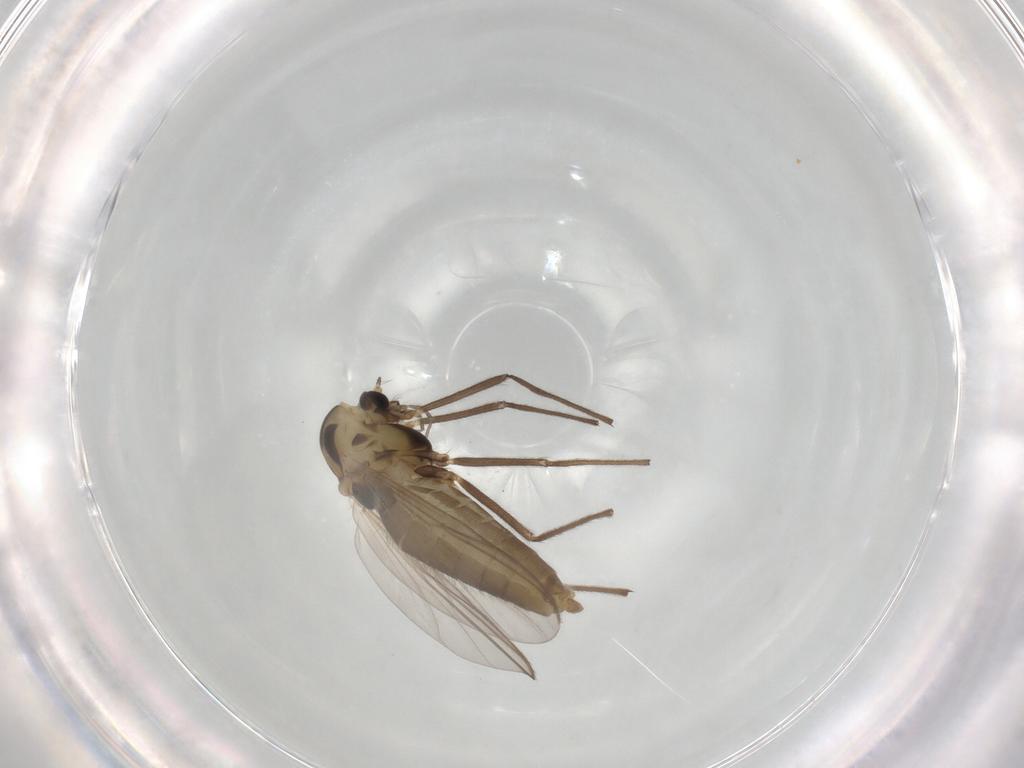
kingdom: Animalia
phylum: Arthropoda
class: Insecta
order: Diptera
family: Chironomidae
